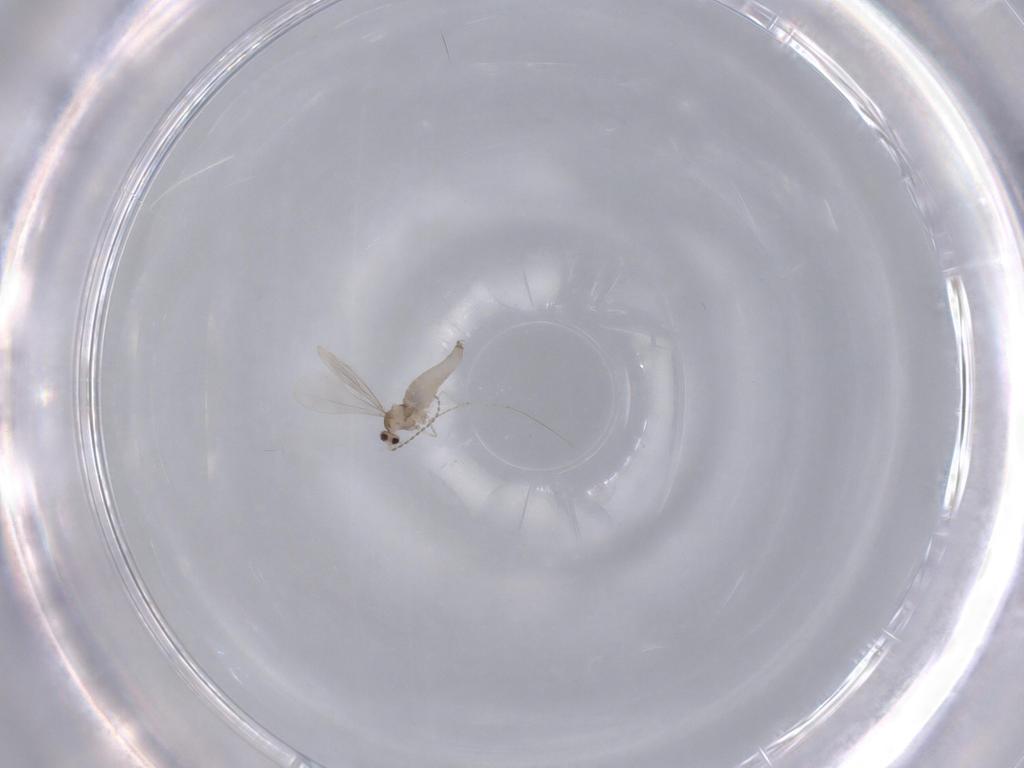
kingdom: Animalia
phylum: Arthropoda
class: Insecta
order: Diptera
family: Cecidomyiidae
